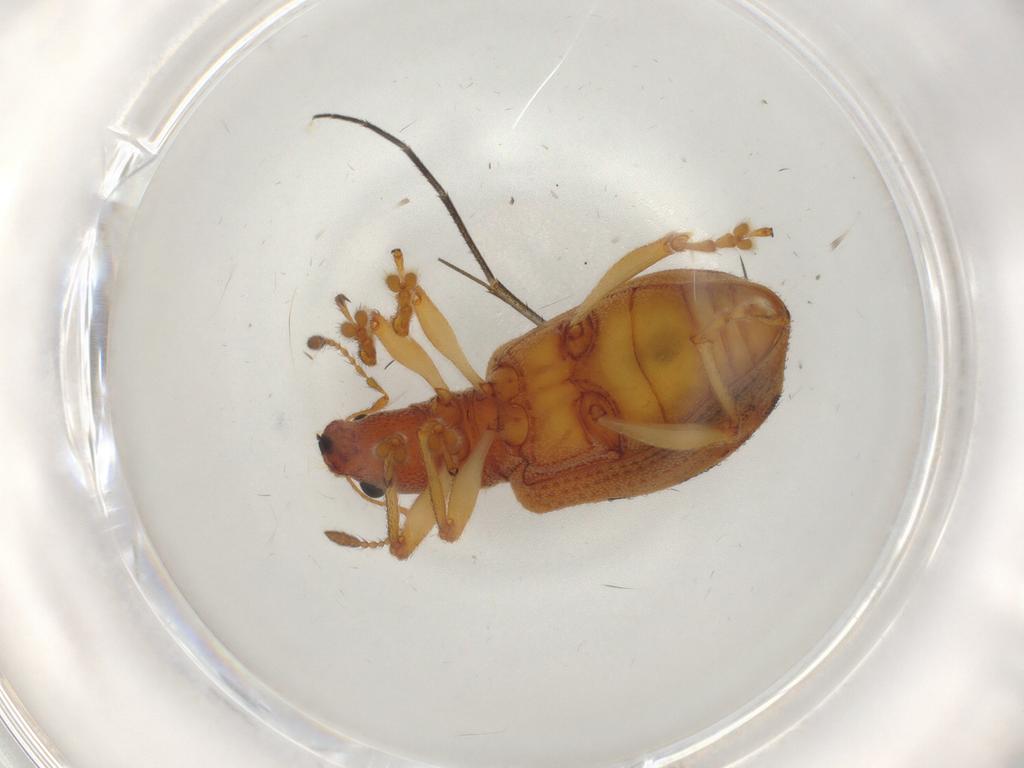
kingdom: Animalia
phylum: Arthropoda
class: Insecta
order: Coleoptera
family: Curculionidae
